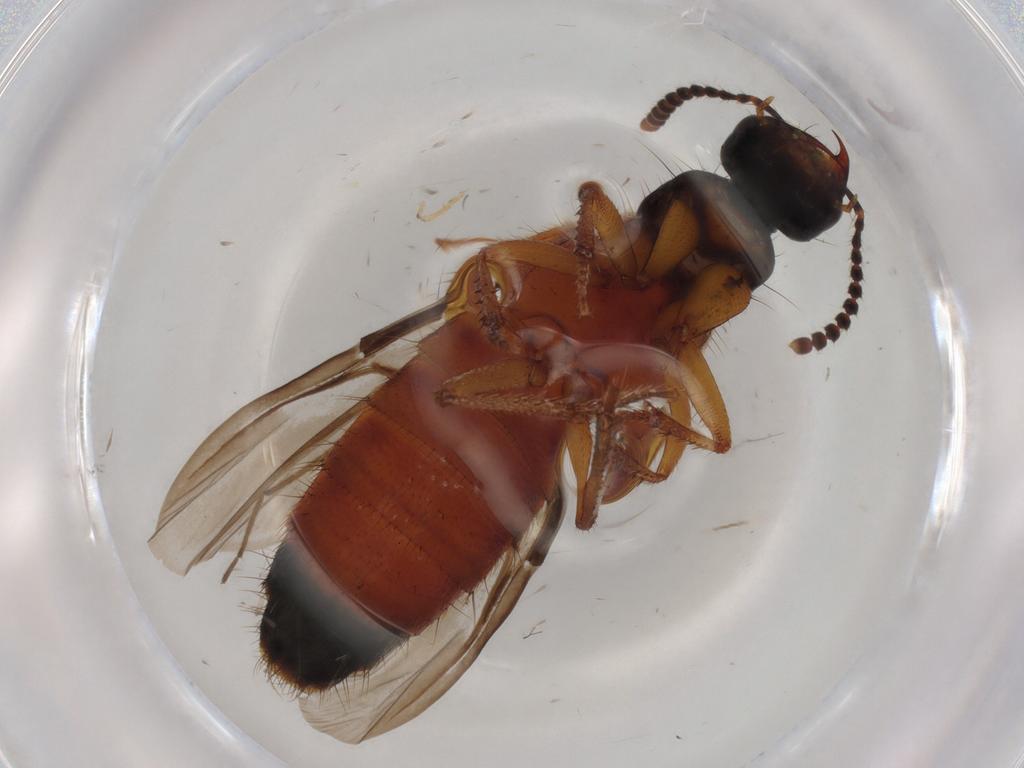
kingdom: Animalia
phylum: Arthropoda
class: Insecta
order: Coleoptera
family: Staphylinidae
